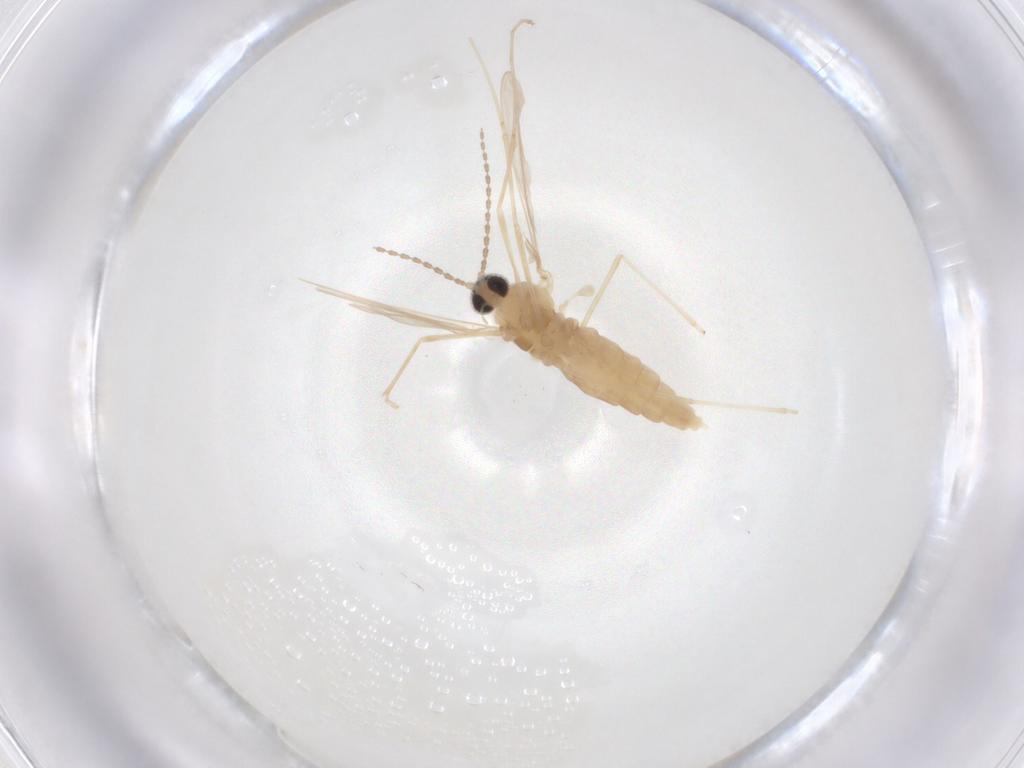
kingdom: Animalia
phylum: Arthropoda
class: Insecta
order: Diptera
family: Cecidomyiidae
